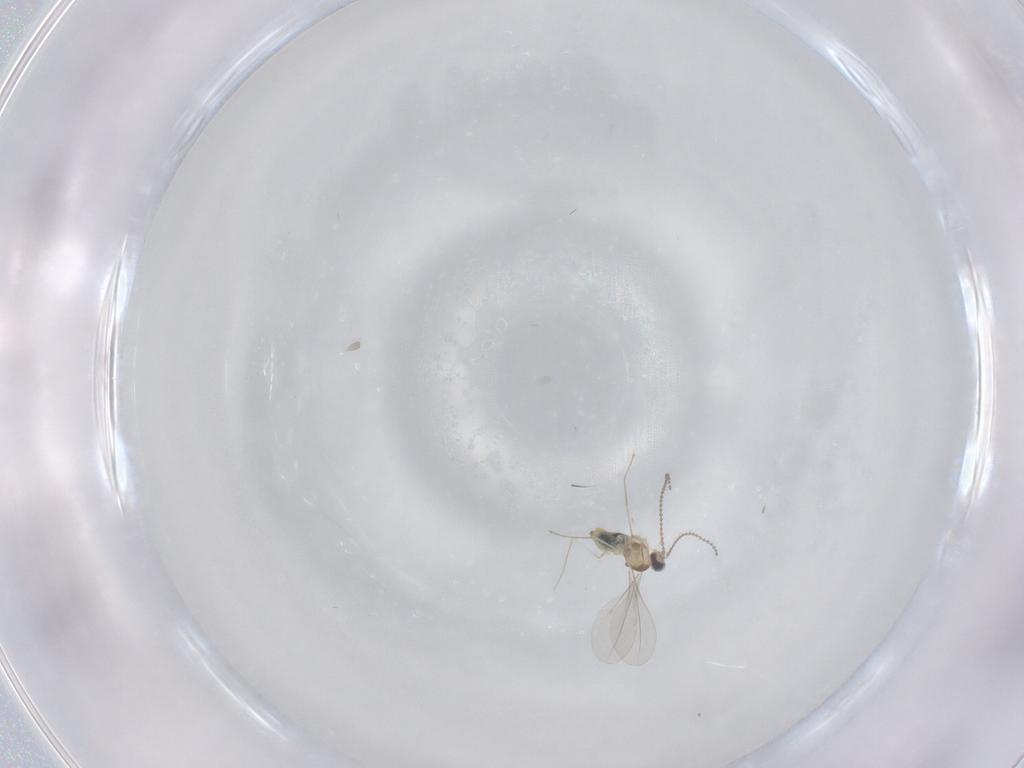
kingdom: Animalia
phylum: Arthropoda
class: Insecta
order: Diptera
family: Cecidomyiidae
